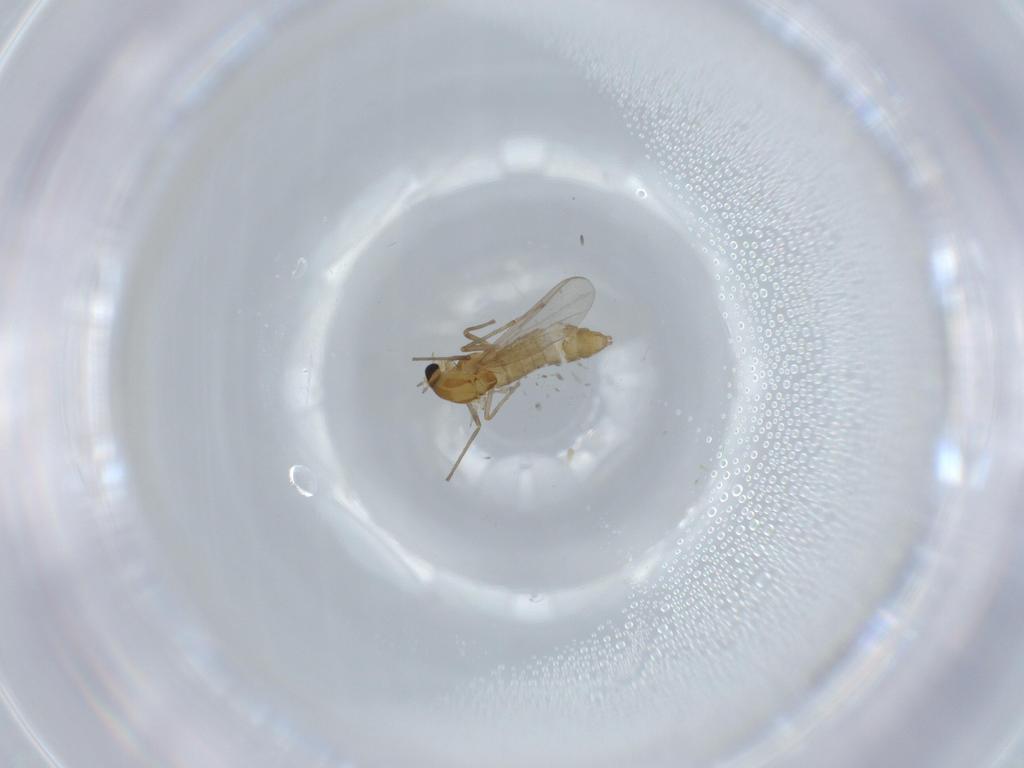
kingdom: Animalia
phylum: Arthropoda
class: Insecta
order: Diptera
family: Chironomidae
